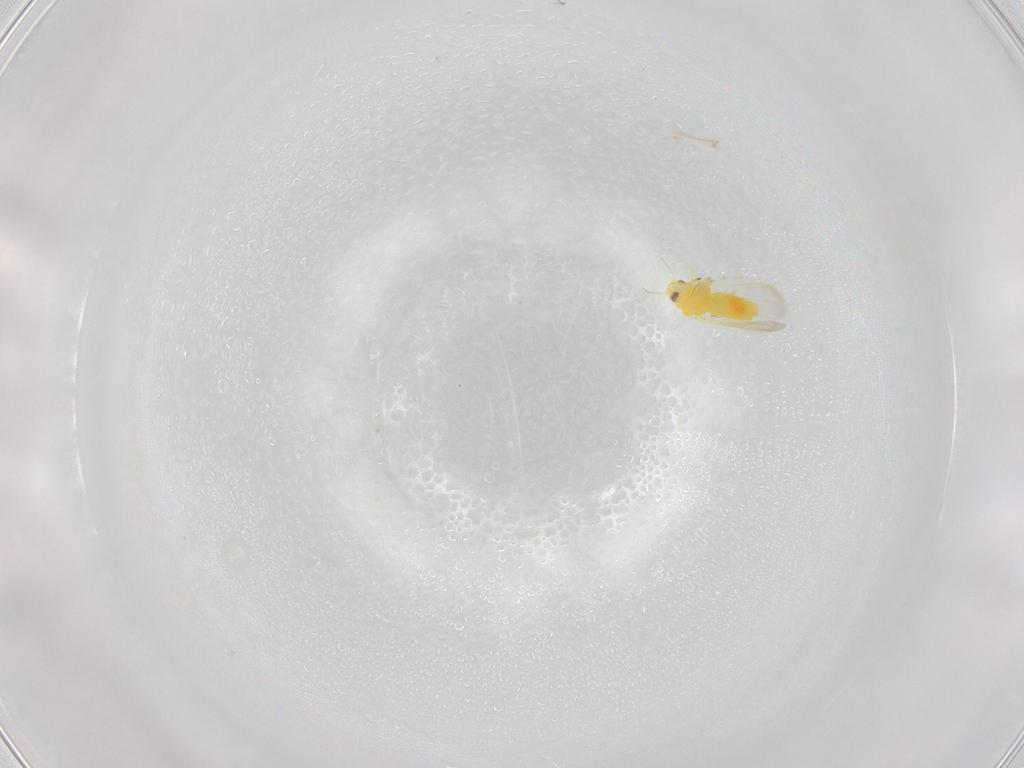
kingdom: Animalia
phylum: Arthropoda
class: Insecta
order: Hemiptera
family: Aleyrodidae
